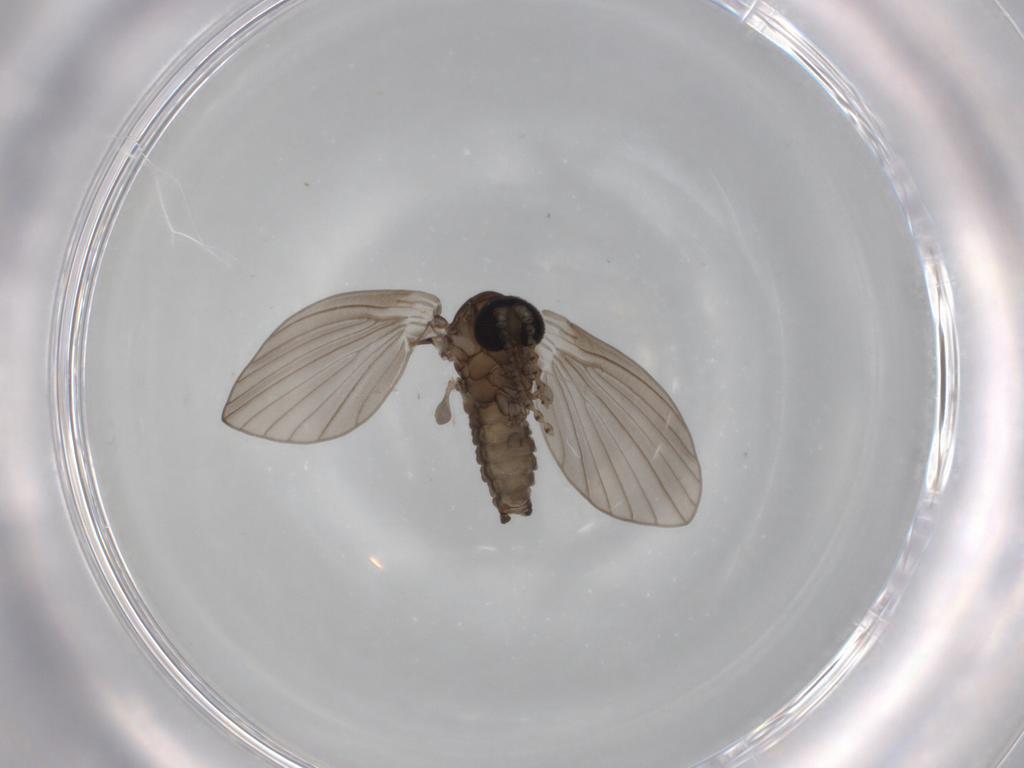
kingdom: Animalia
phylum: Arthropoda
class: Insecta
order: Diptera
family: Psychodidae
